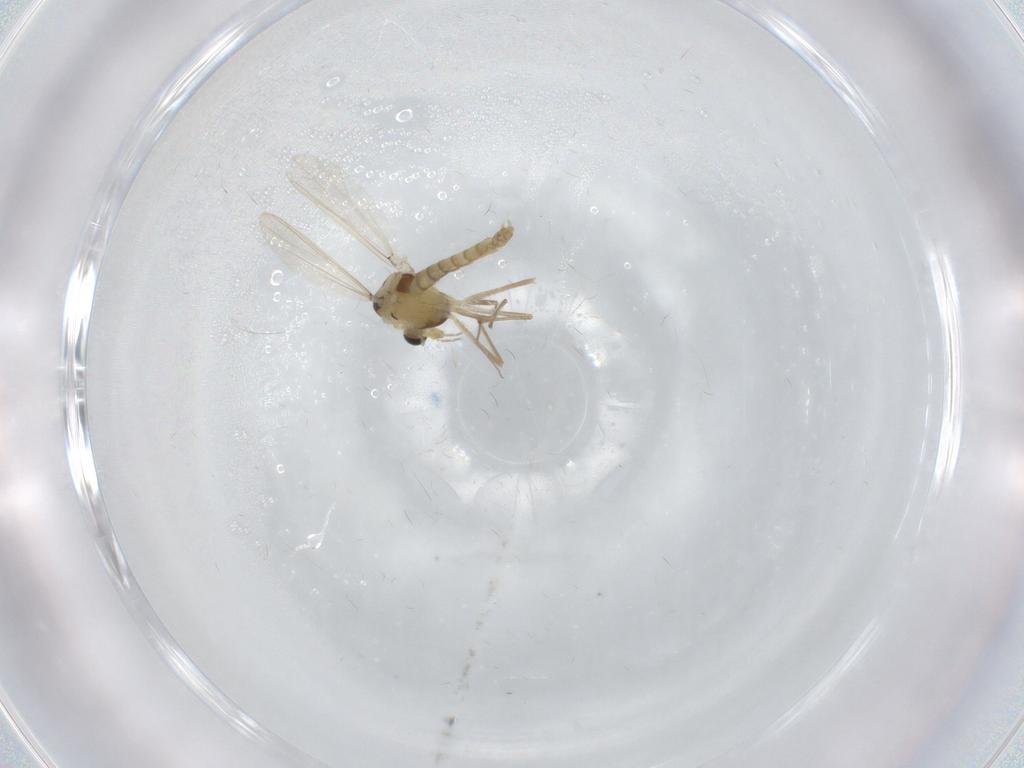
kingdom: Animalia
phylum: Arthropoda
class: Insecta
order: Diptera
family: Chironomidae
